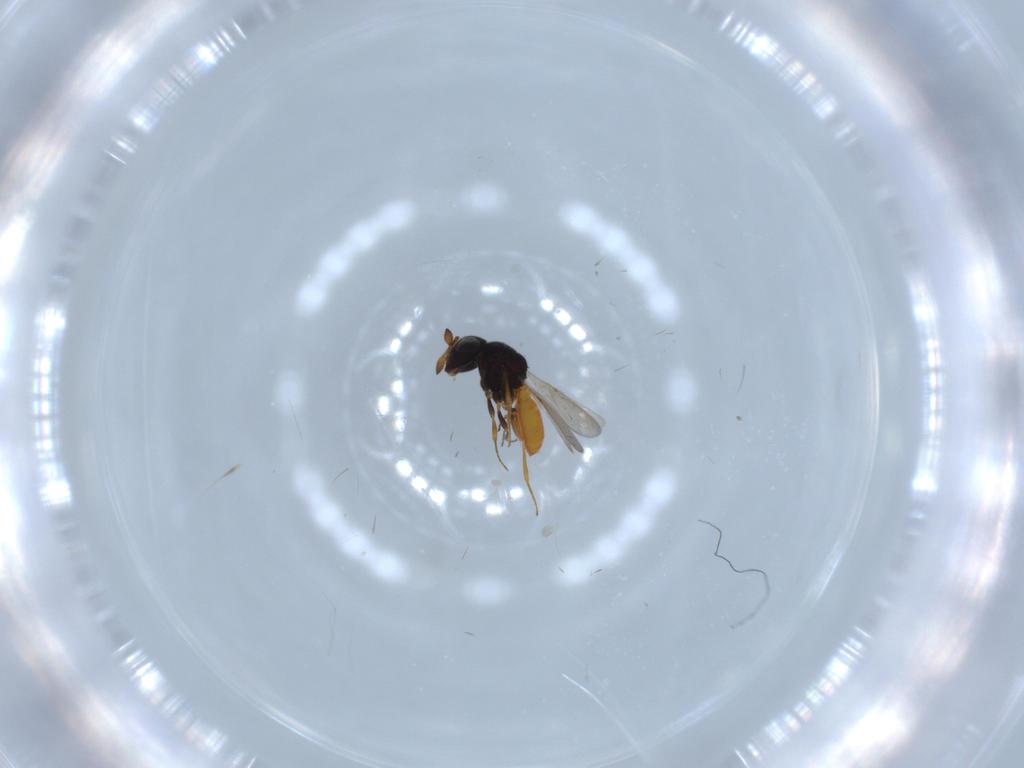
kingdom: Animalia
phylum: Arthropoda
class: Insecta
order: Hymenoptera
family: Scelionidae
